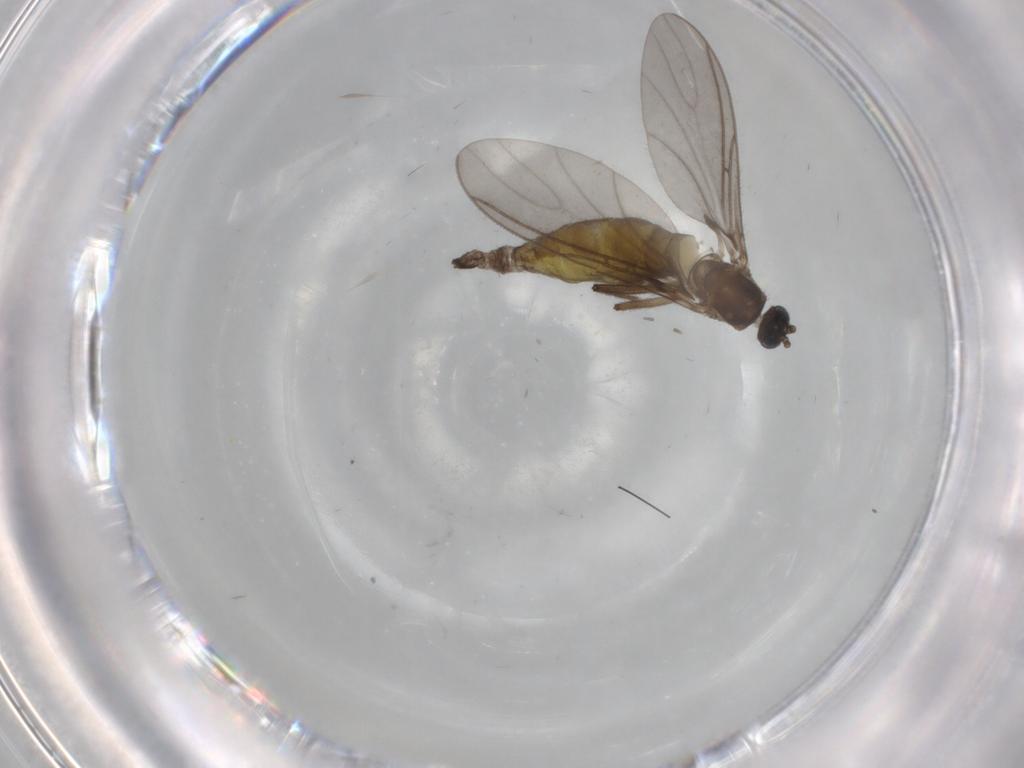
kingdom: Animalia
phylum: Arthropoda
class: Insecta
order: Diptera
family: Sciaridae
